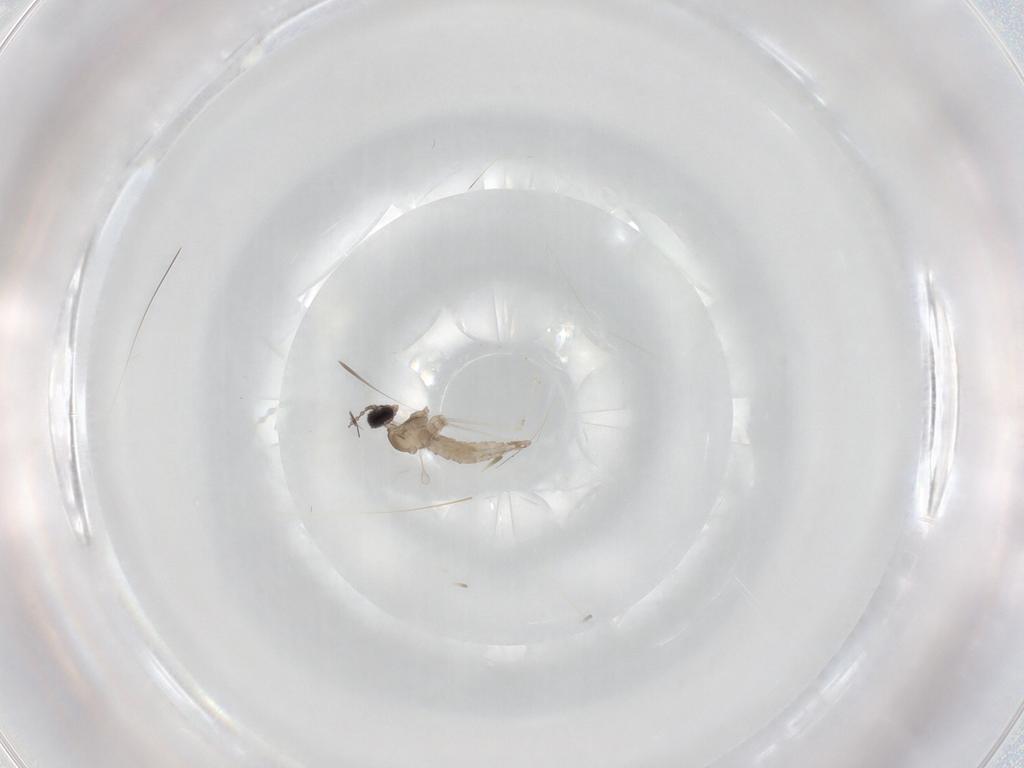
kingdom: Animalia
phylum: Arthropoda
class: Insecta
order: Diptera
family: Cecidomyiidae
